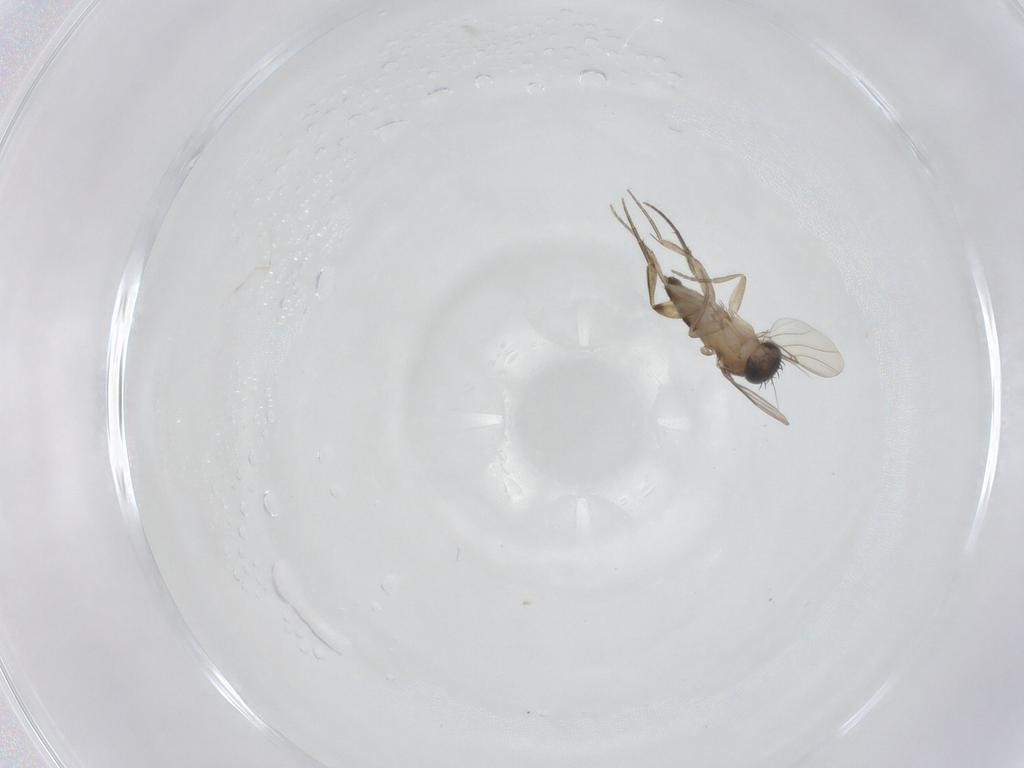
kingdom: Animalia
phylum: Arthropoda
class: Insecta
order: Diptera
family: Phoridae
